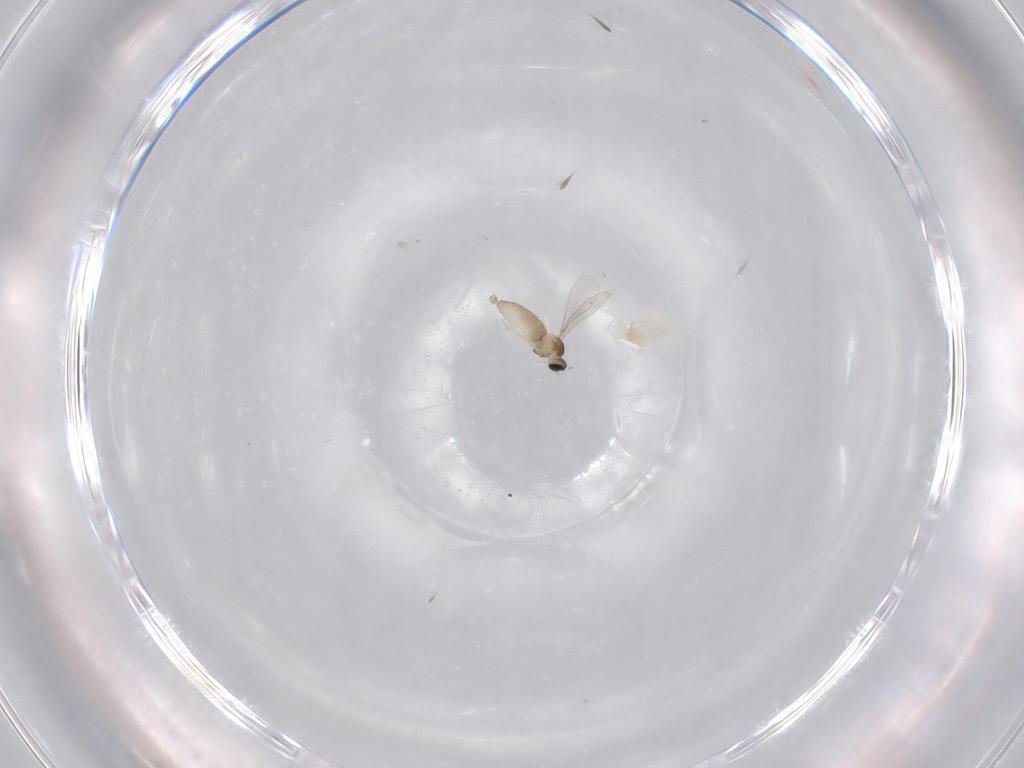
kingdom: Animalia
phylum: Arthropoda
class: Insecta
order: Diptera
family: Sciaridae
